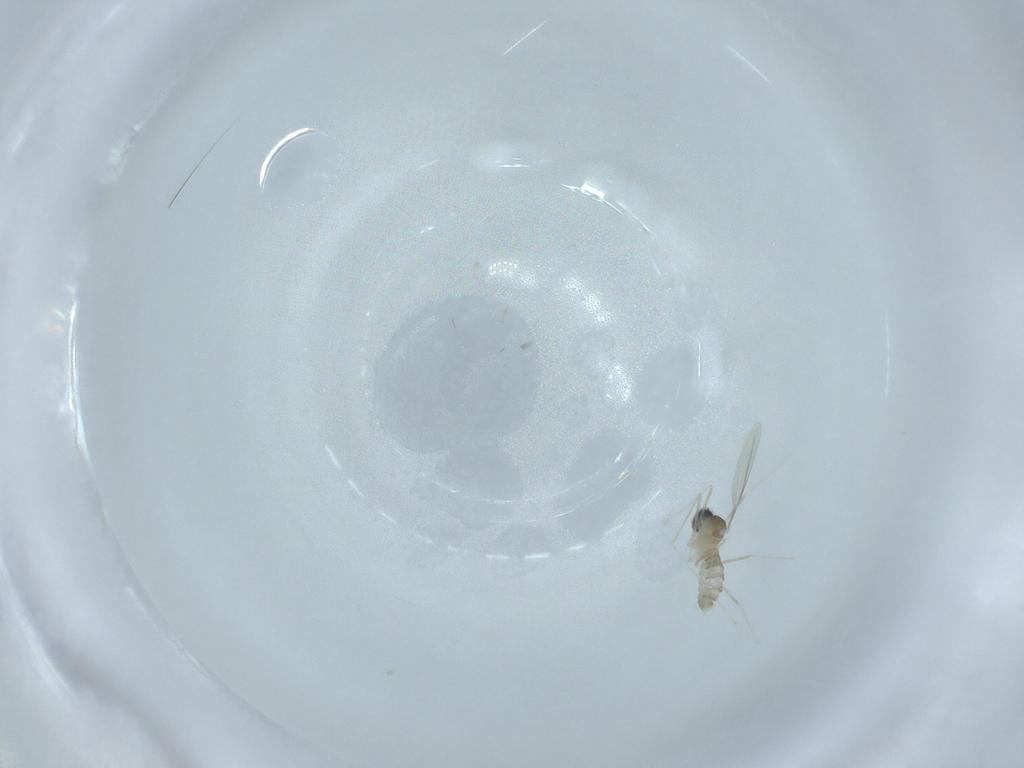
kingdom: Animalia
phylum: Arthropoda
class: Insecta
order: Diptera
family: Cecidomyiidae
